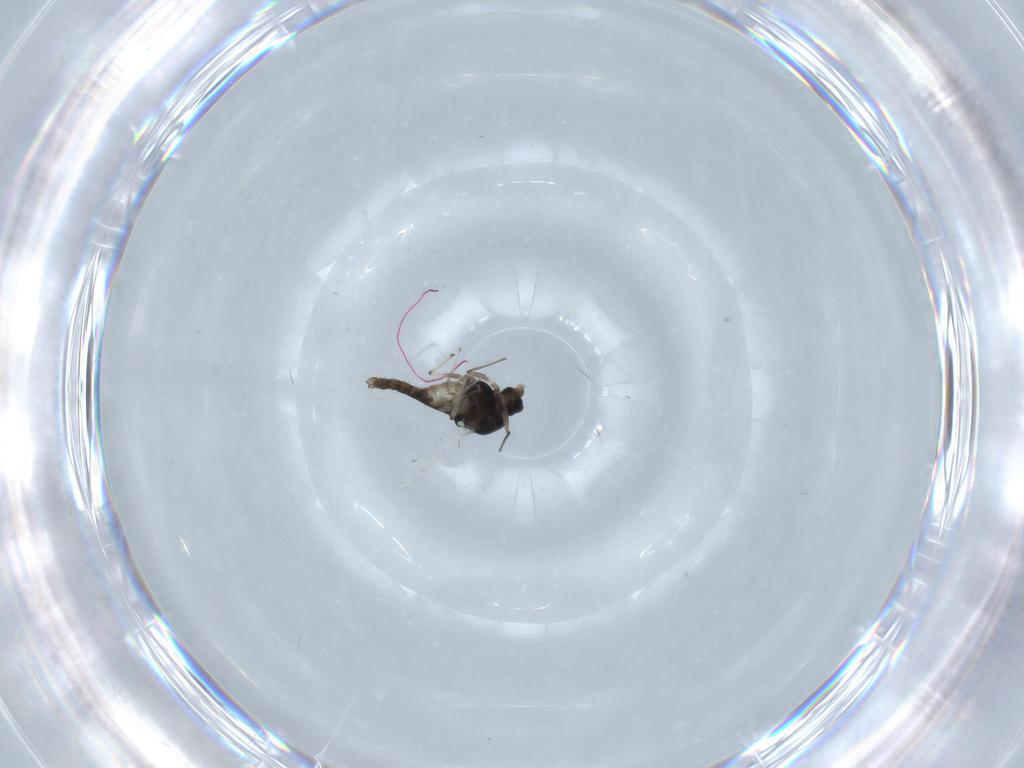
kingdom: Animalia
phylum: Arthropoda
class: Insecta
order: Diptera
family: Chironomidae
